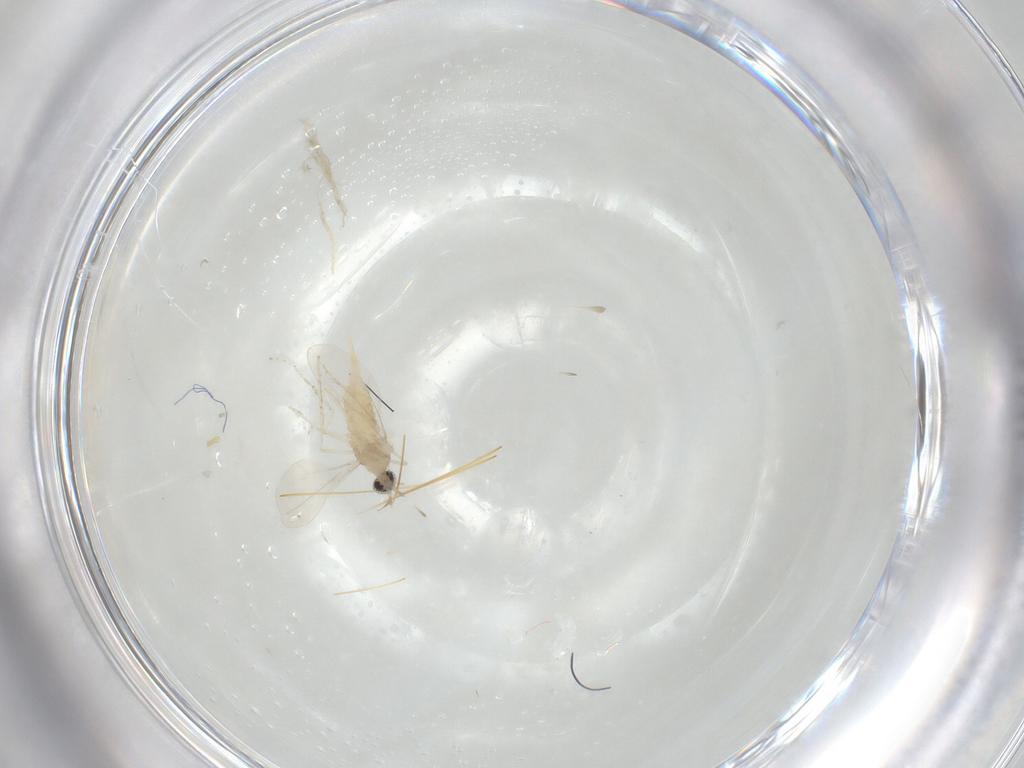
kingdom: Animalia
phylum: Arthropoda
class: Insecta
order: Diptera
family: Cecidomyiidae
